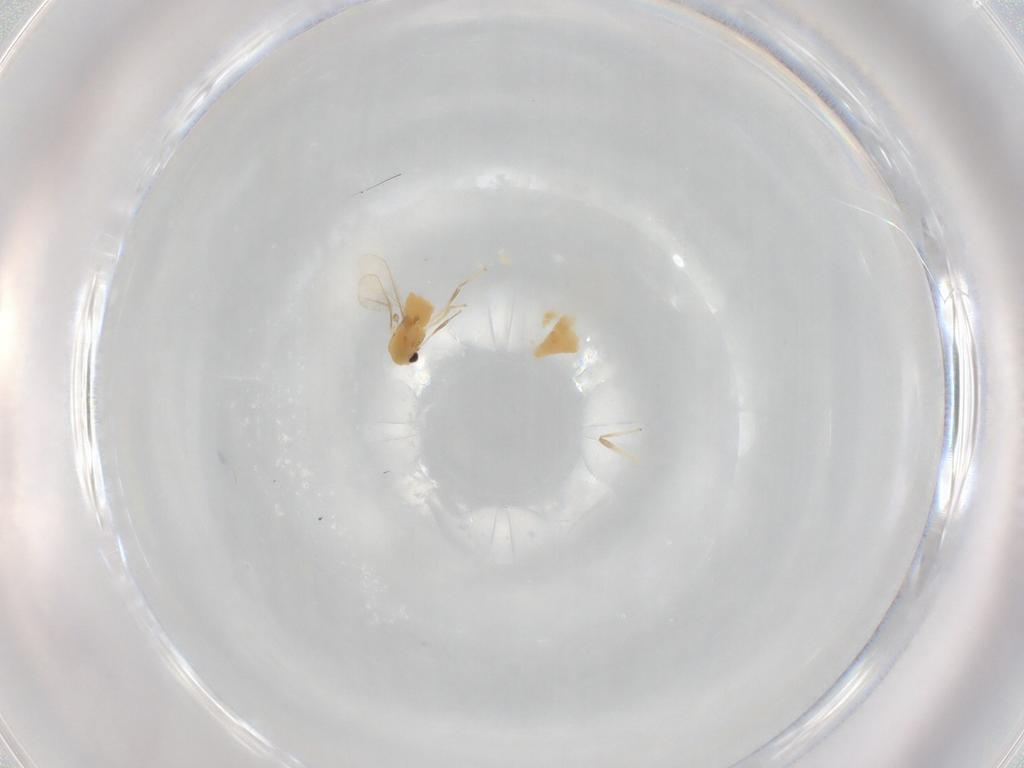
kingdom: Animalia
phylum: Arthropoda
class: Insecta
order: Diptera
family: Chironomidae
